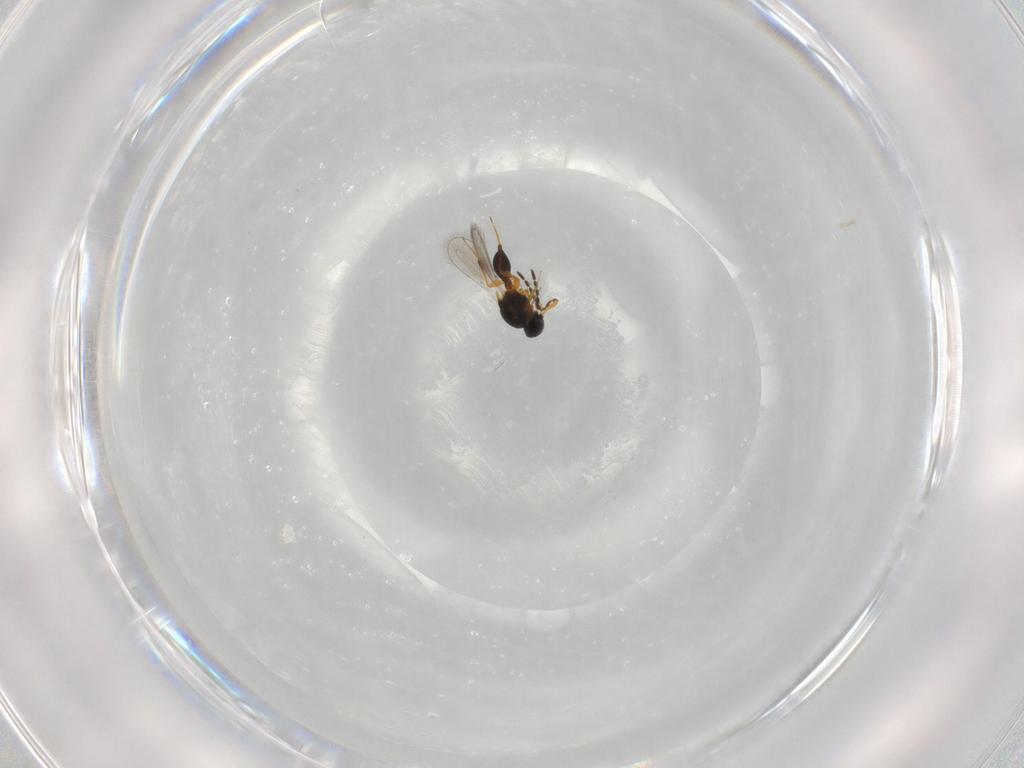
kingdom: Animalia
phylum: Arthropoda
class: Insecta
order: Hymenoptera
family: Platygastridae
